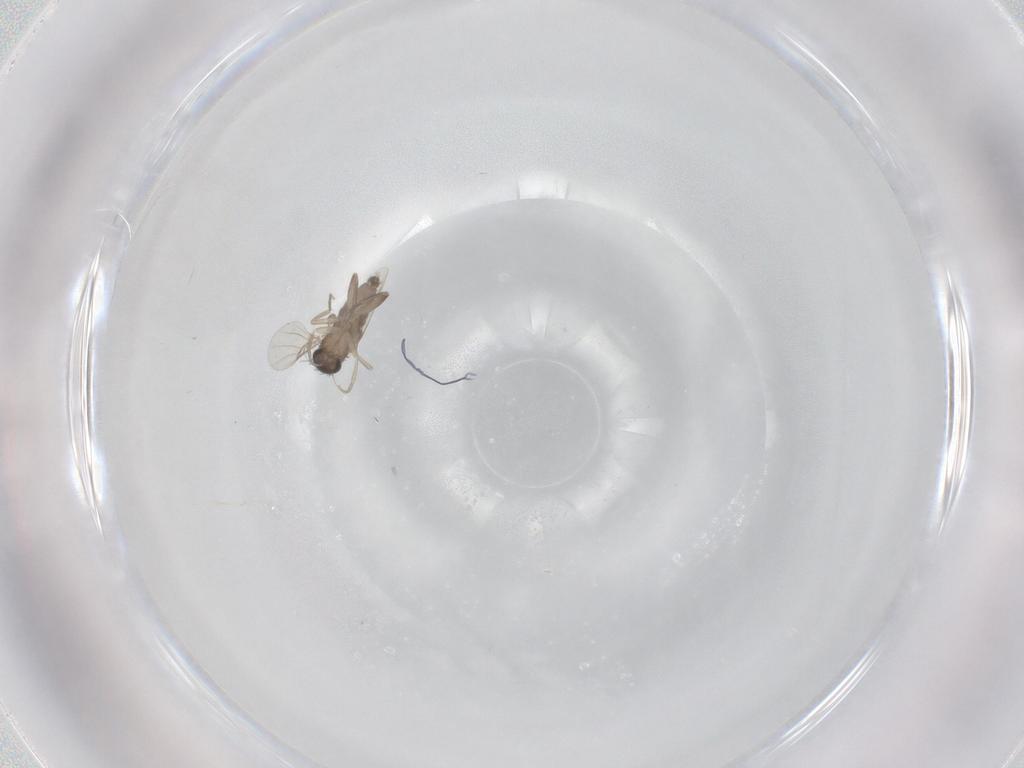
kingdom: Animalia
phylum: Arthropoda
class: Insecta
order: Diptera
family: Phoridae
